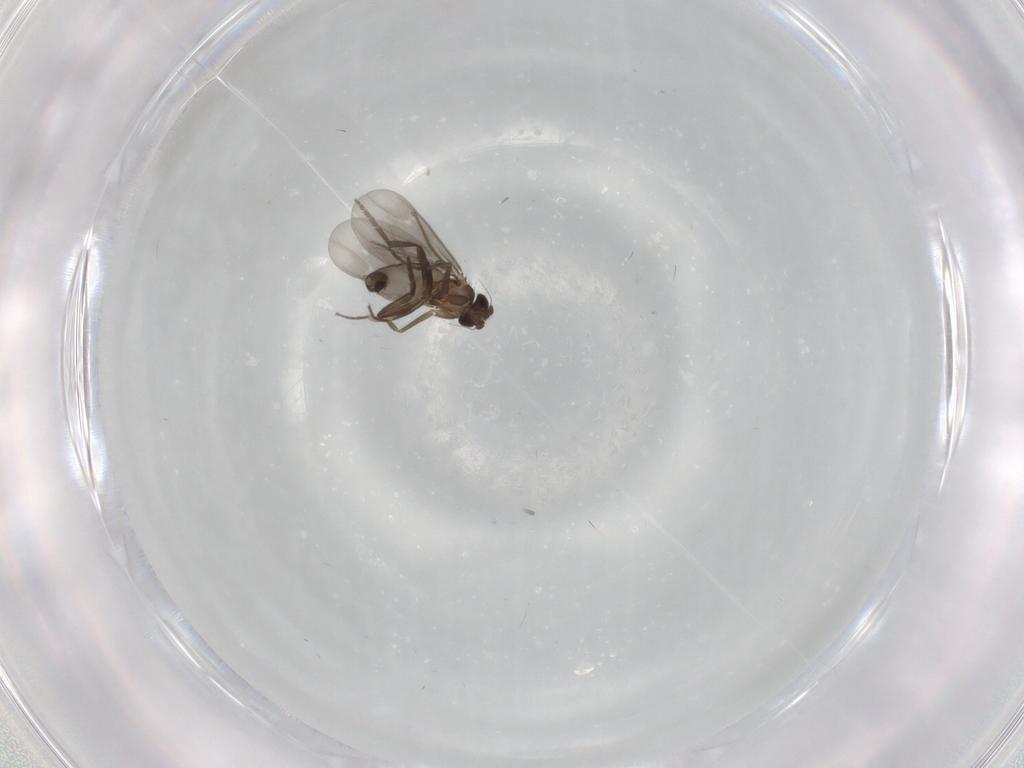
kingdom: Animalia
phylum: Arthropoda
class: Insecta
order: Diptera
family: Phoridae
